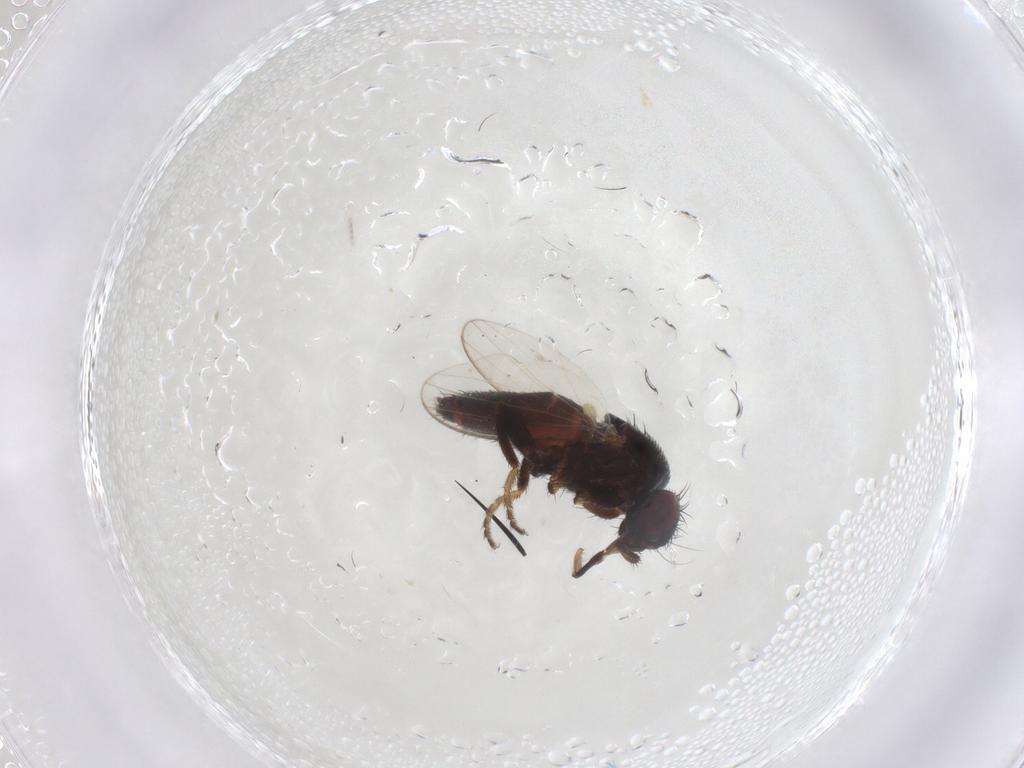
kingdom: Animalia
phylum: Arthropoda
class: Insecta
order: Diptera
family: Milichiidae
